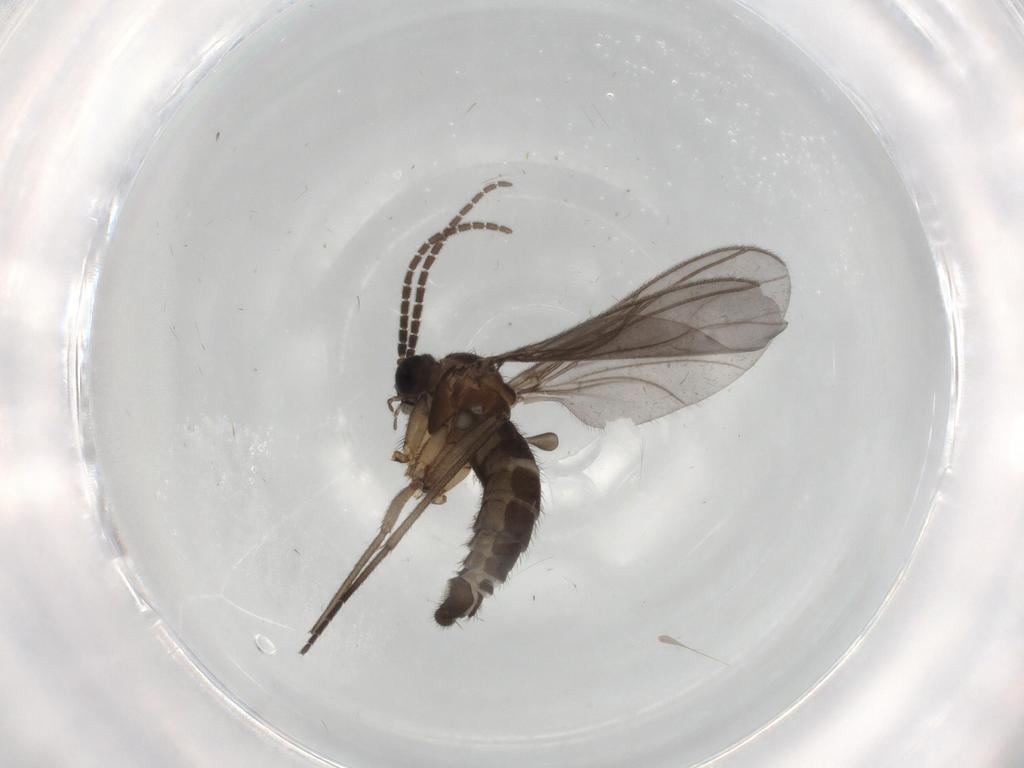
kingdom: Animalia
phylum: Arthropoda
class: Insecta
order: Diptera
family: Sciaridae
